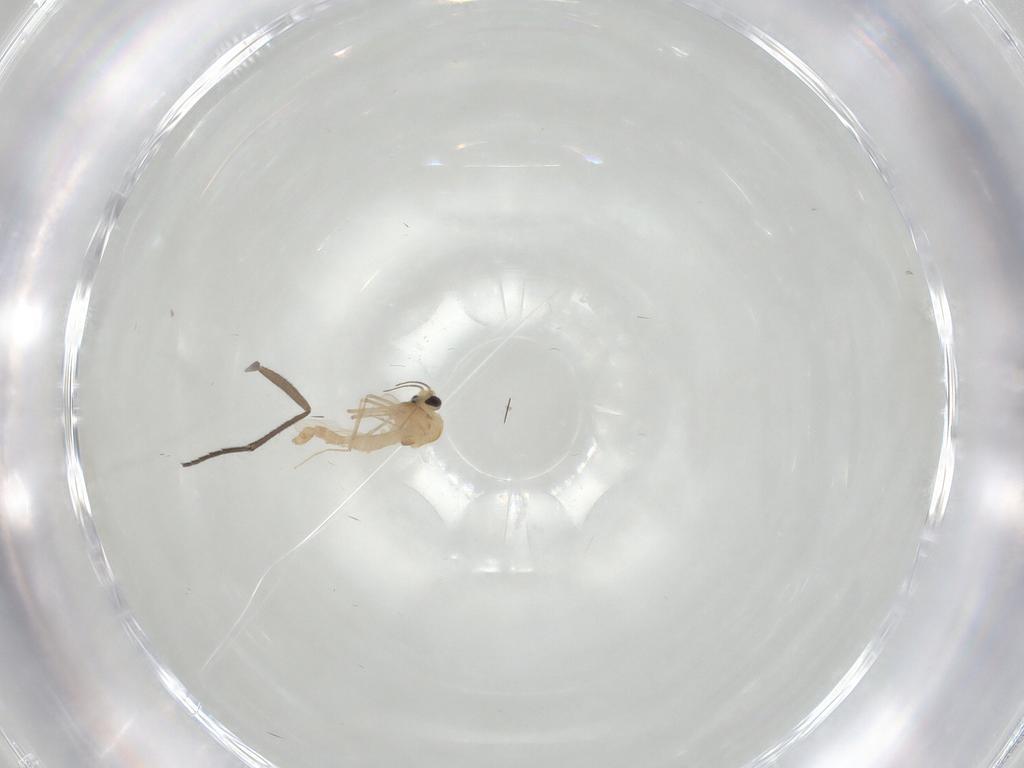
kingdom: Animalia
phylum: Arthropoda
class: Insecta
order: Diptera
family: Chironomidae
